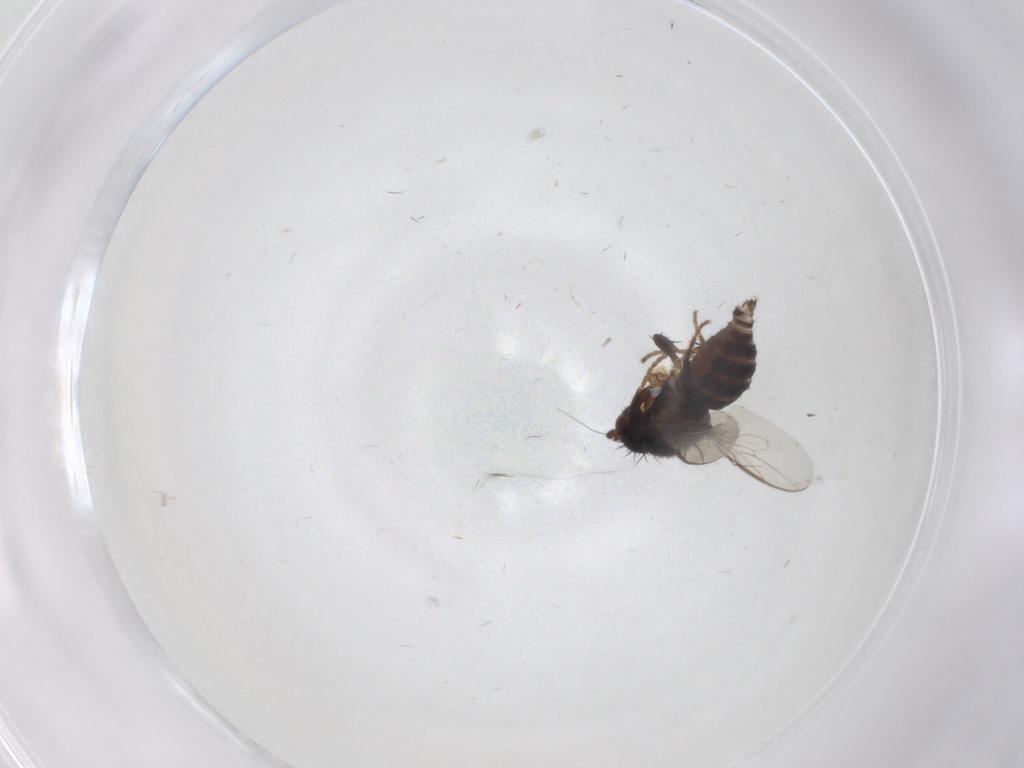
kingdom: Animalia
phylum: Arthropoda
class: Insecta
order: Diptera
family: Sphaeroceridae
